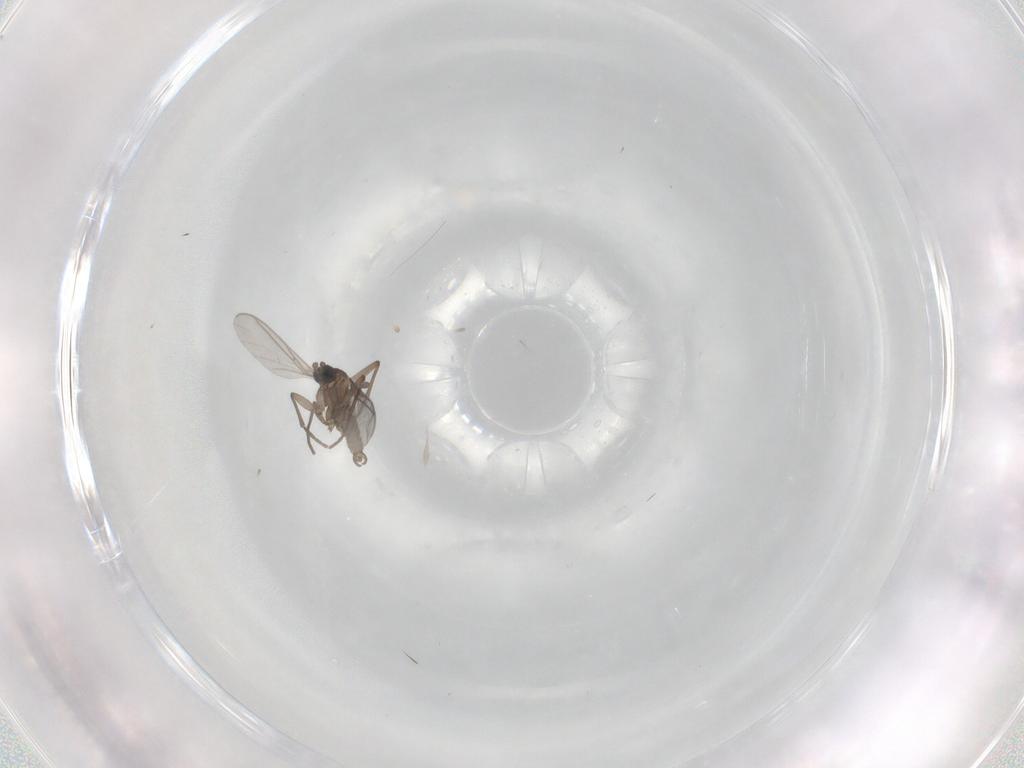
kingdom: Animalia
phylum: Arthropoda
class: Insecta
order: Diptera
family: Sciaridae
